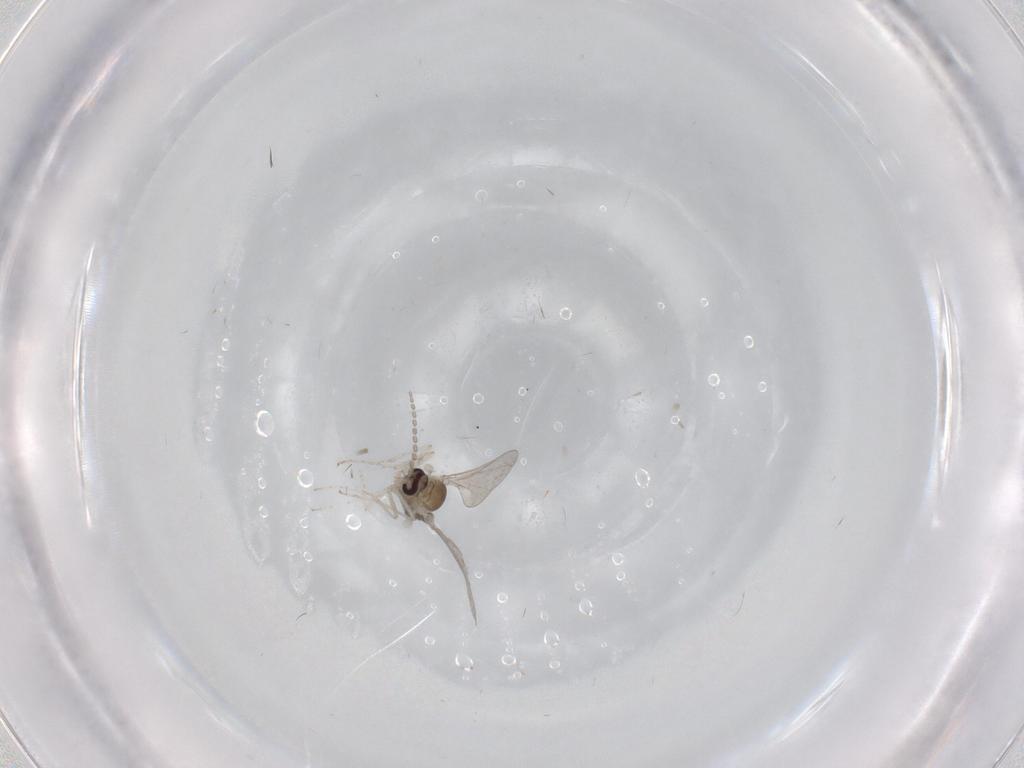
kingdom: Animalia
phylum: Arthropoda
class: Insecta
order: Diptera
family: Cecidomyiidae
